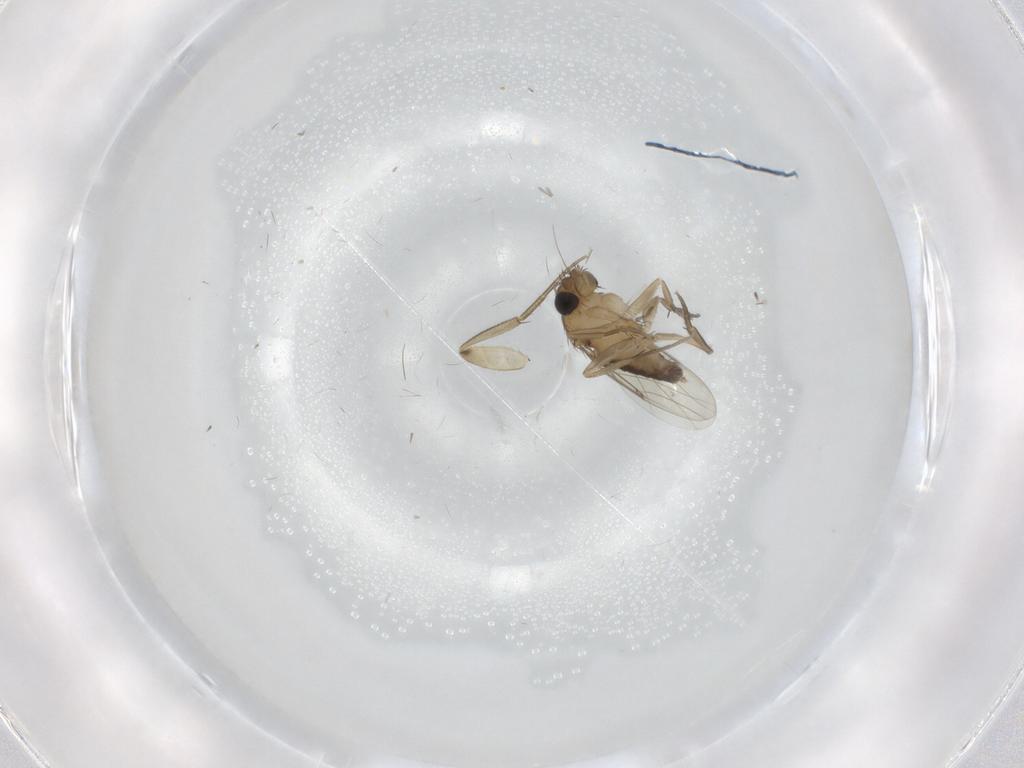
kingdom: Animalia
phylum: Arthropoda
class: Insecta
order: Diptera
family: Phoridae
